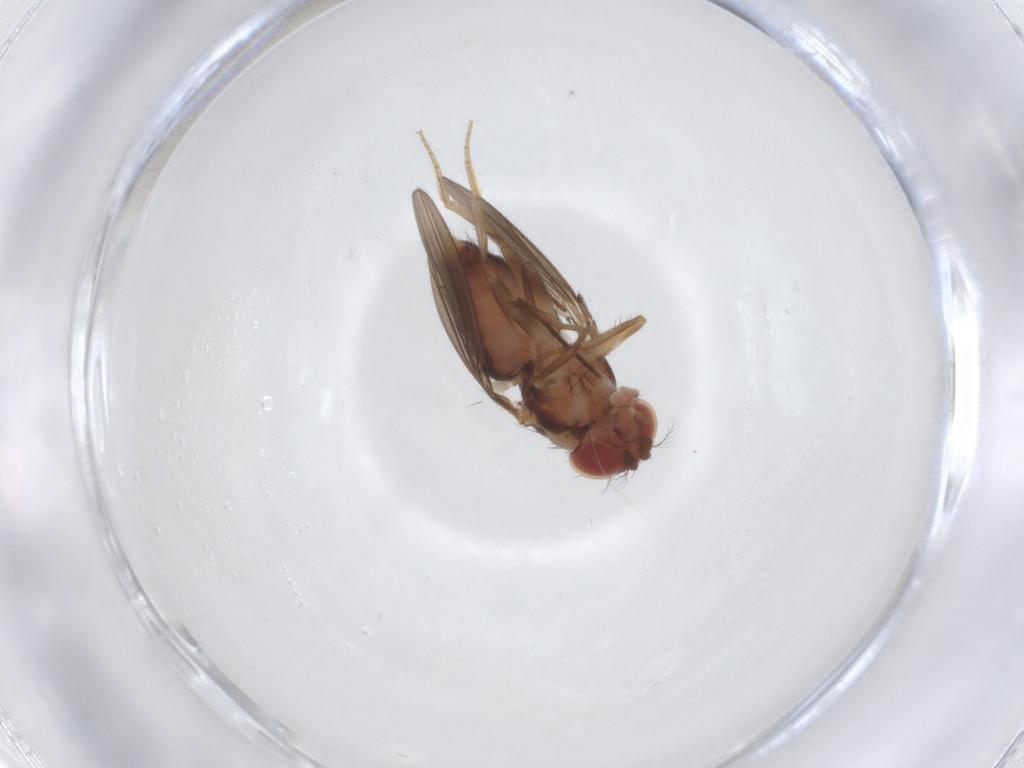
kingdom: Animalia
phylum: Arthropoda
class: Insecta
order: Diptera
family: Drosophilidae
